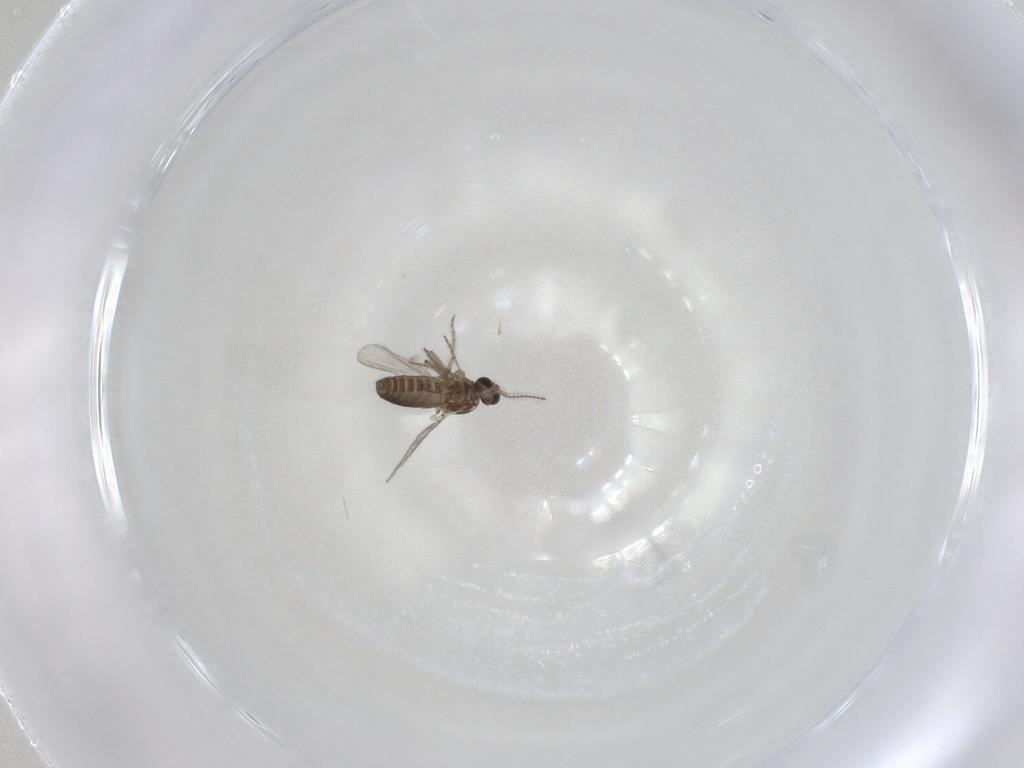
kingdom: Animalia
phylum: Arthropoda
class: Insecta
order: Diptera
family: Ceratopogonidae
